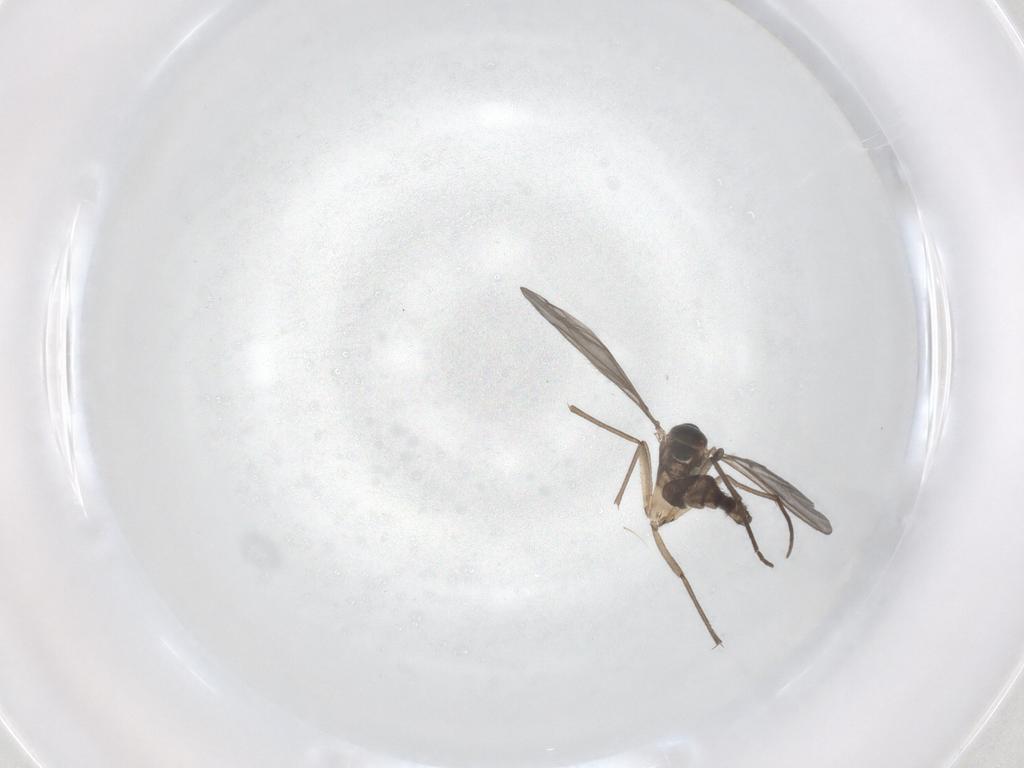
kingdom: Animalia
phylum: Arthropoda
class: Insecta
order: Diptera
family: Sciaridae
